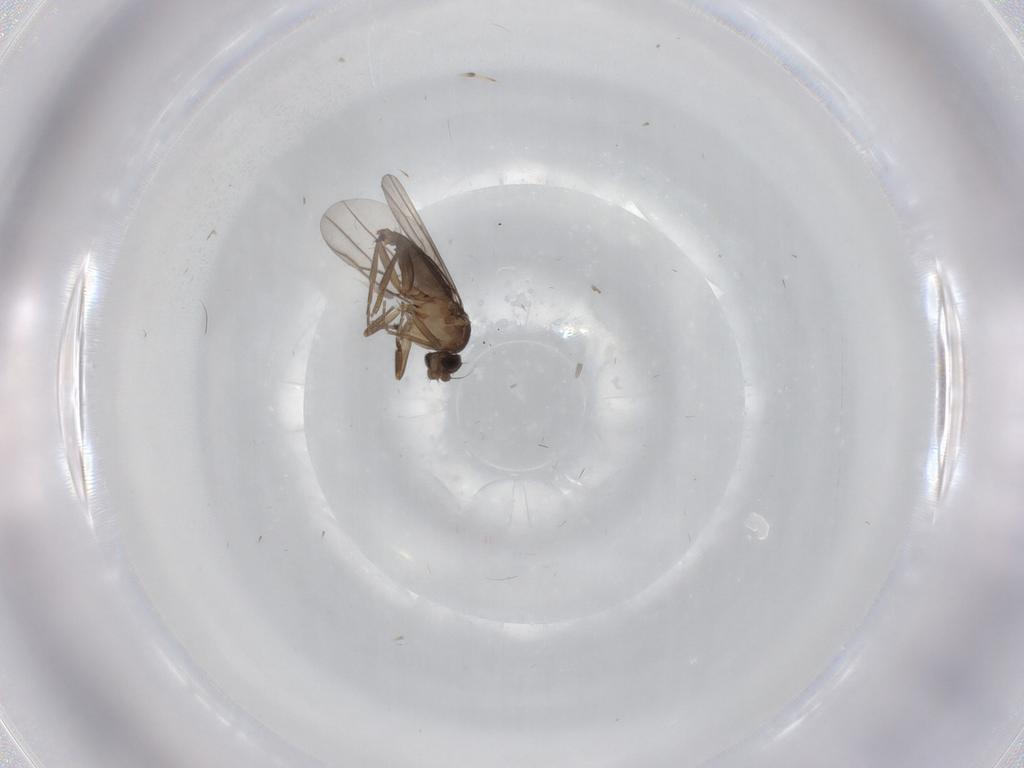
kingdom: Animalia
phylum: Arthropoda
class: Insecta
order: Diptera
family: Phoridae
